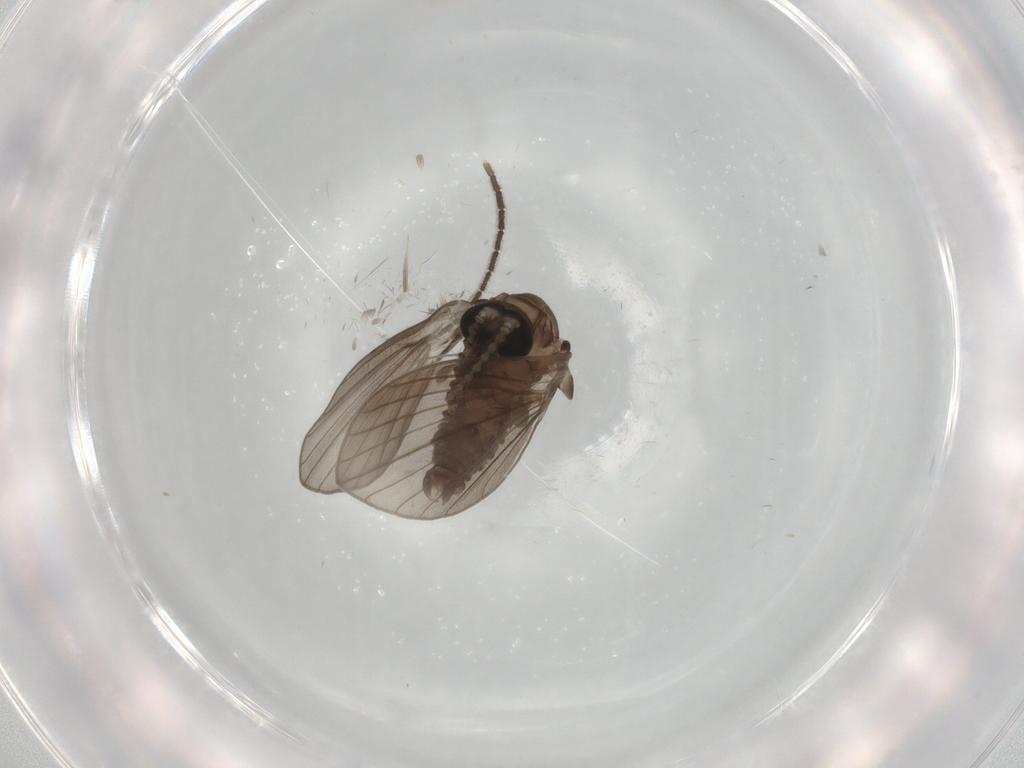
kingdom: Animalia
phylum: Arthropoda
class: Insecta
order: Diptera
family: Psychodidae
